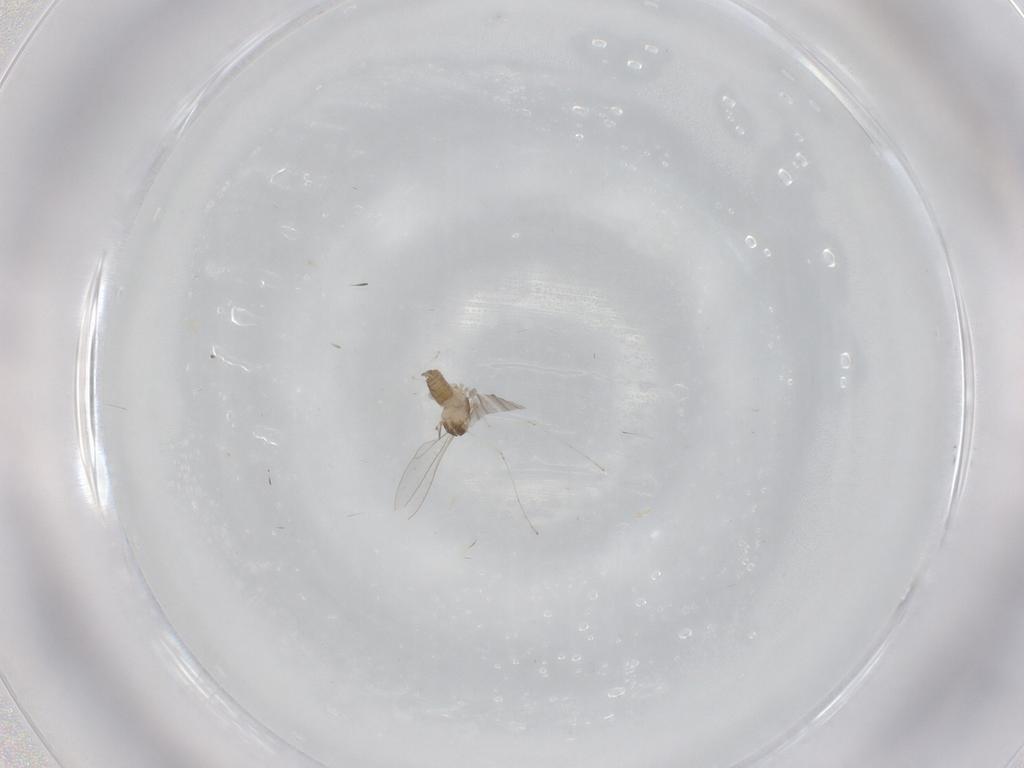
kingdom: Animalia
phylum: Arthropoda
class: Insecta
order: Diptera
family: Cecidomyiidae
